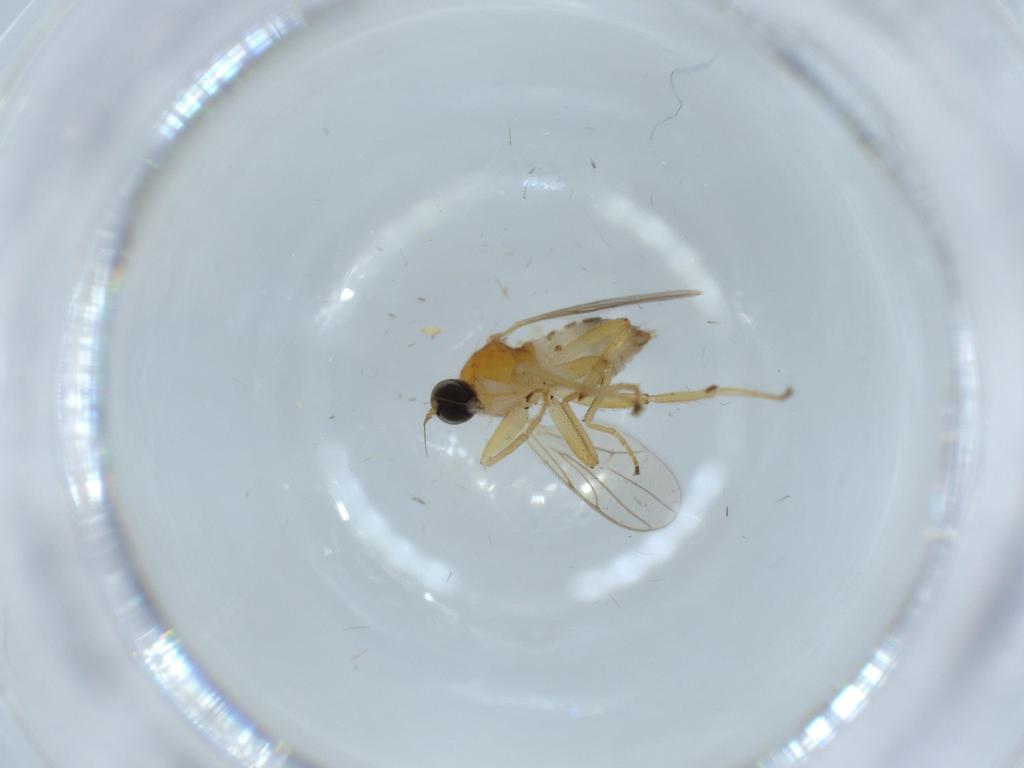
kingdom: Animalia
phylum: Arthropoda
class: Insecta
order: Diptera
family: Hybotidae
